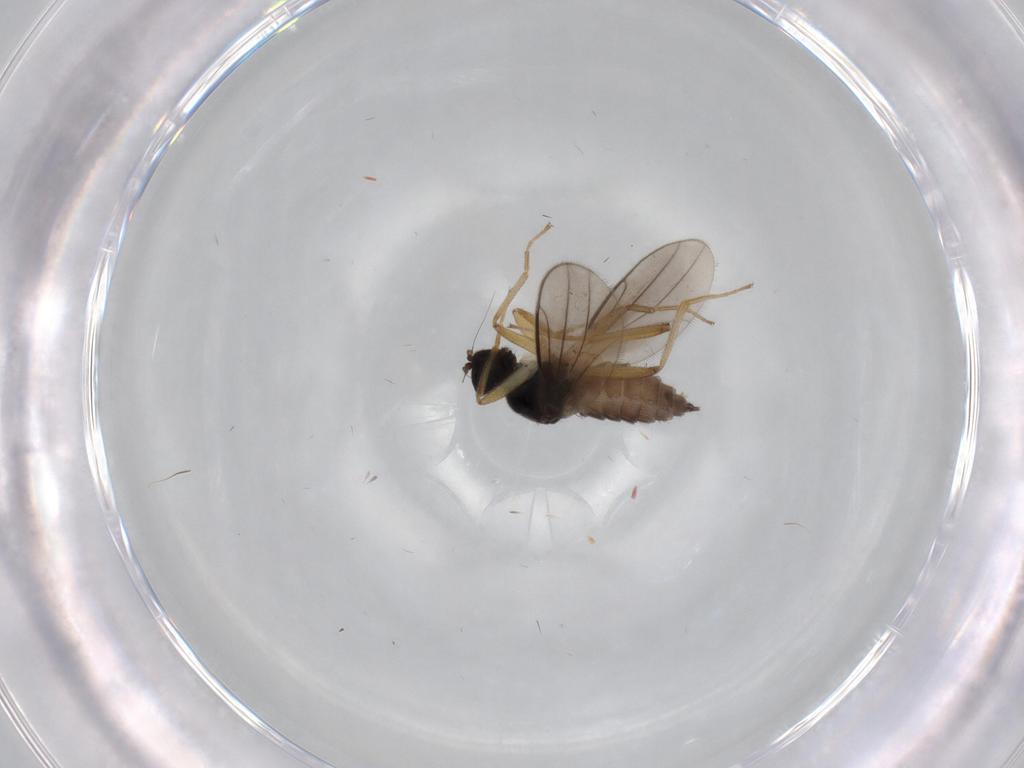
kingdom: Animalia
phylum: Arthropoda
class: Insecta
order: Diptera
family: Hybotidae
